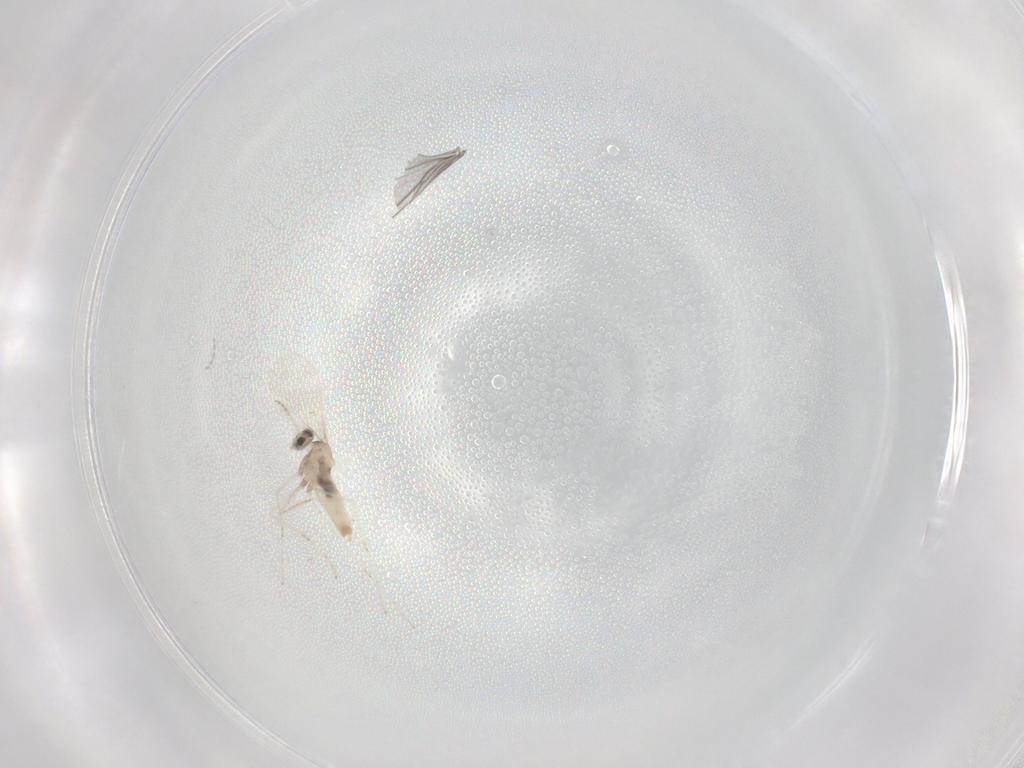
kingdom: Animalia
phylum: Arthropoda
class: Insecta
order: Diptera
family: Cecidomyiidae
